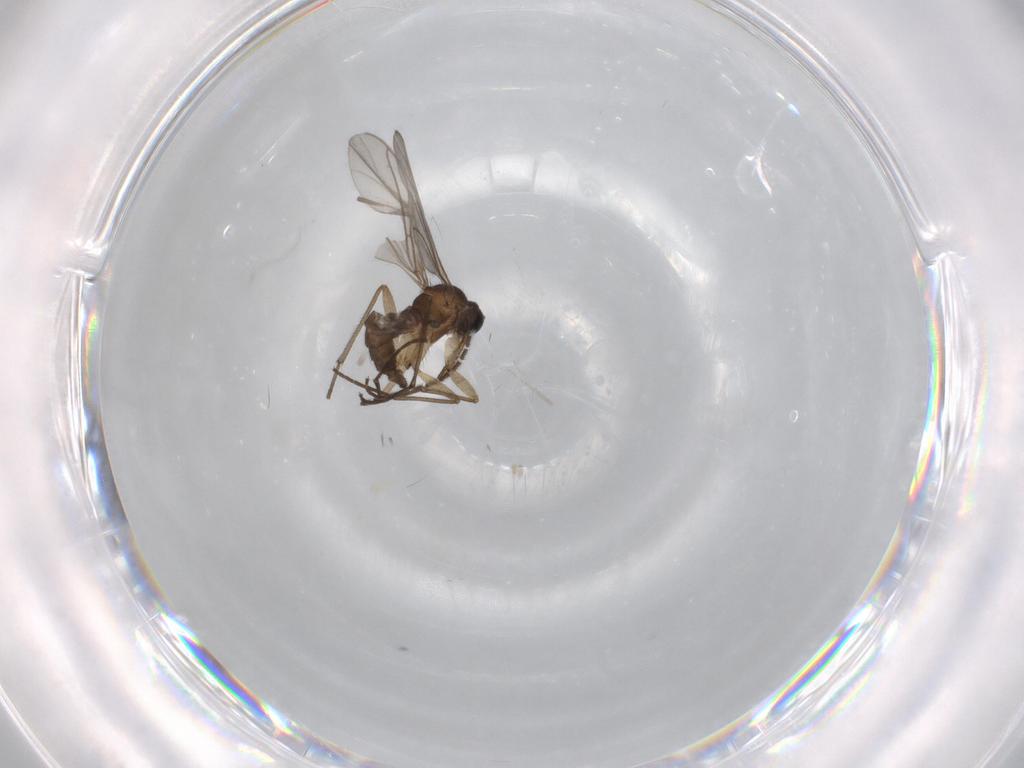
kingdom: Animalia
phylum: Arthropoda
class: Insecta
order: Diptera
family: Sciaridae
